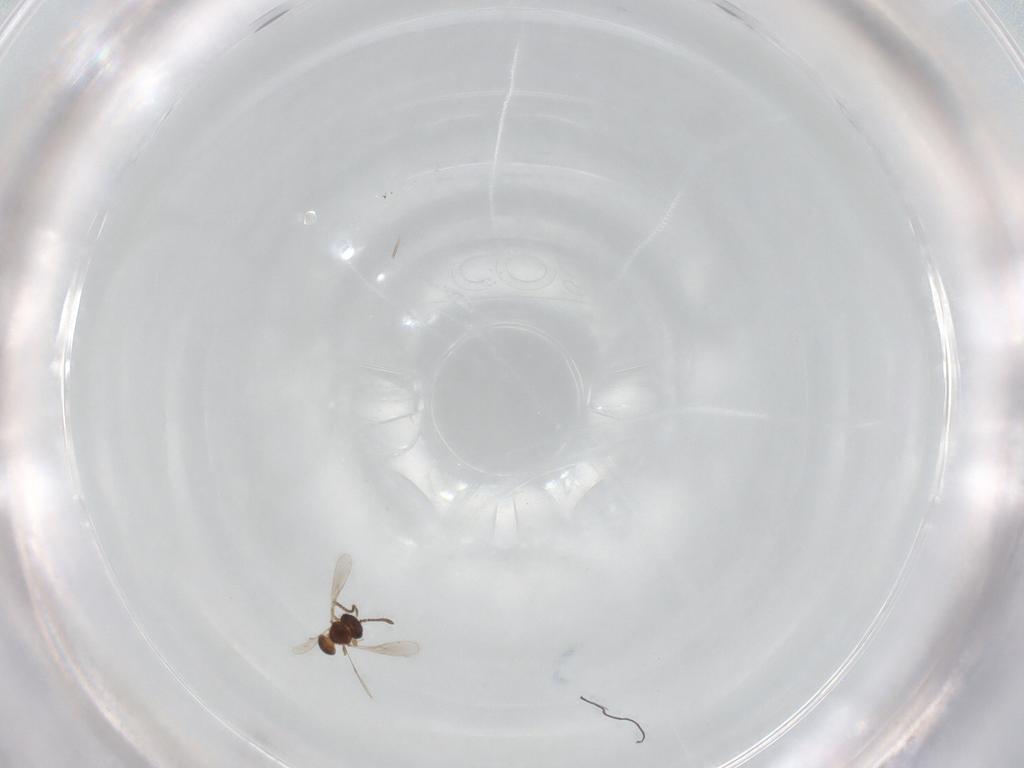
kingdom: Animalia
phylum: Arthropoda
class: Insecta
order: Hymenoptera
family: Scelionidae
